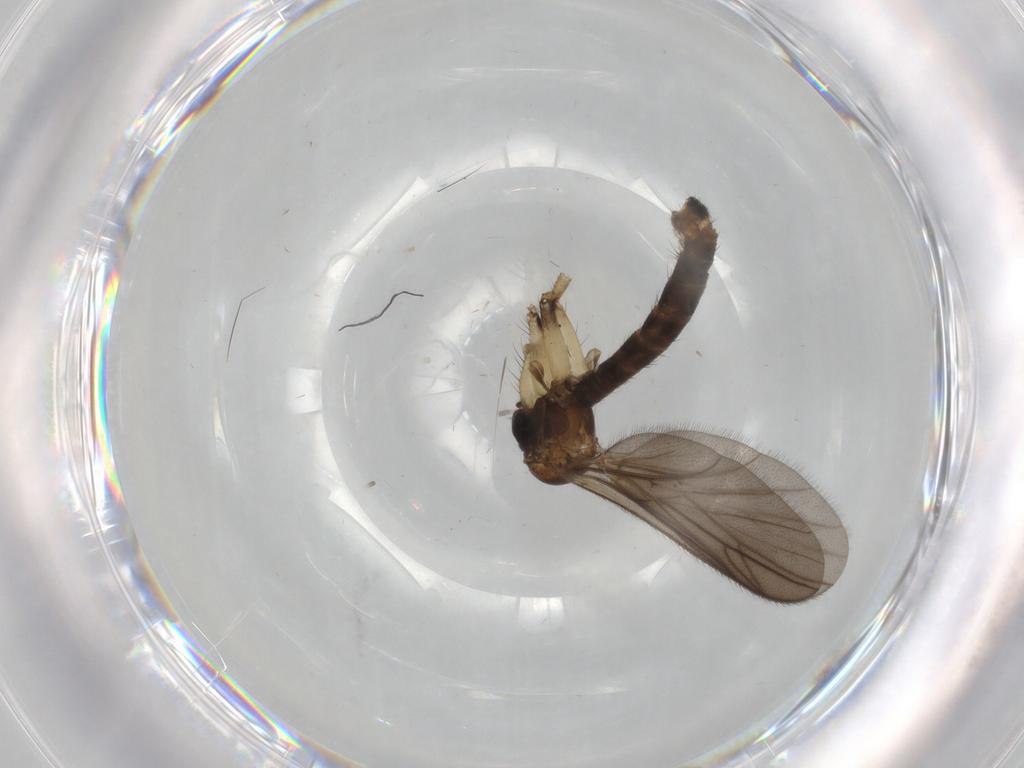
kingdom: Animalia
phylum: Arthropoda
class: Insecta
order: Diptera
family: Ditomyiidae
